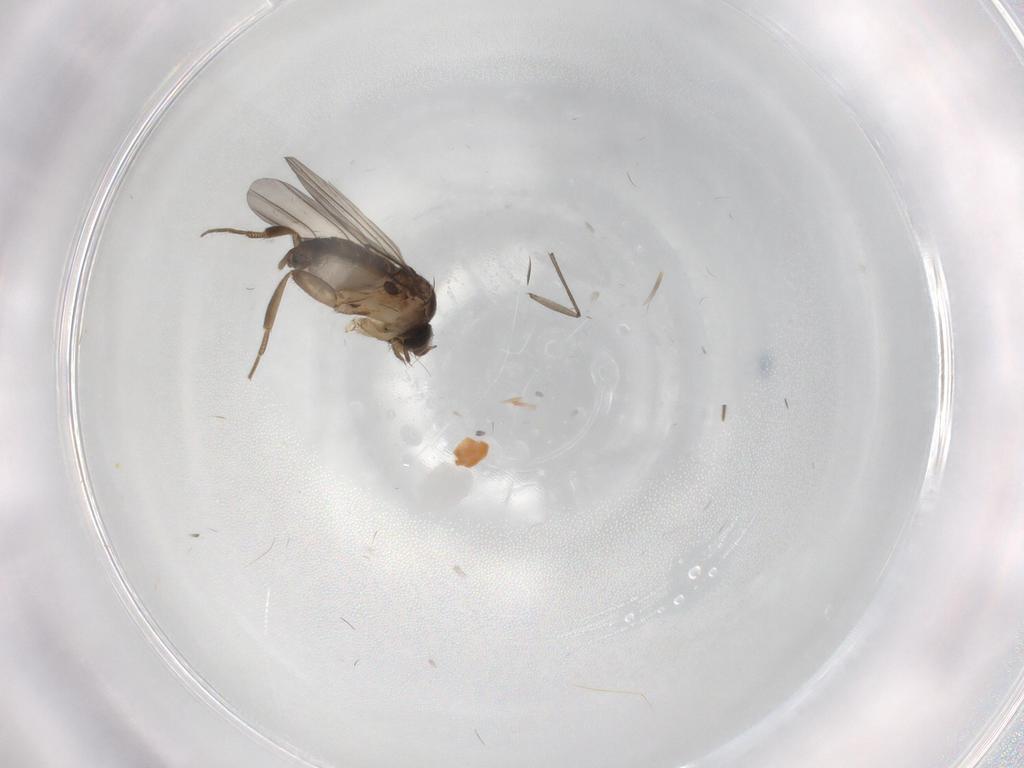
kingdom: Animalia
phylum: Arthropoda
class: Insecta
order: Diptera
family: Phoridae
